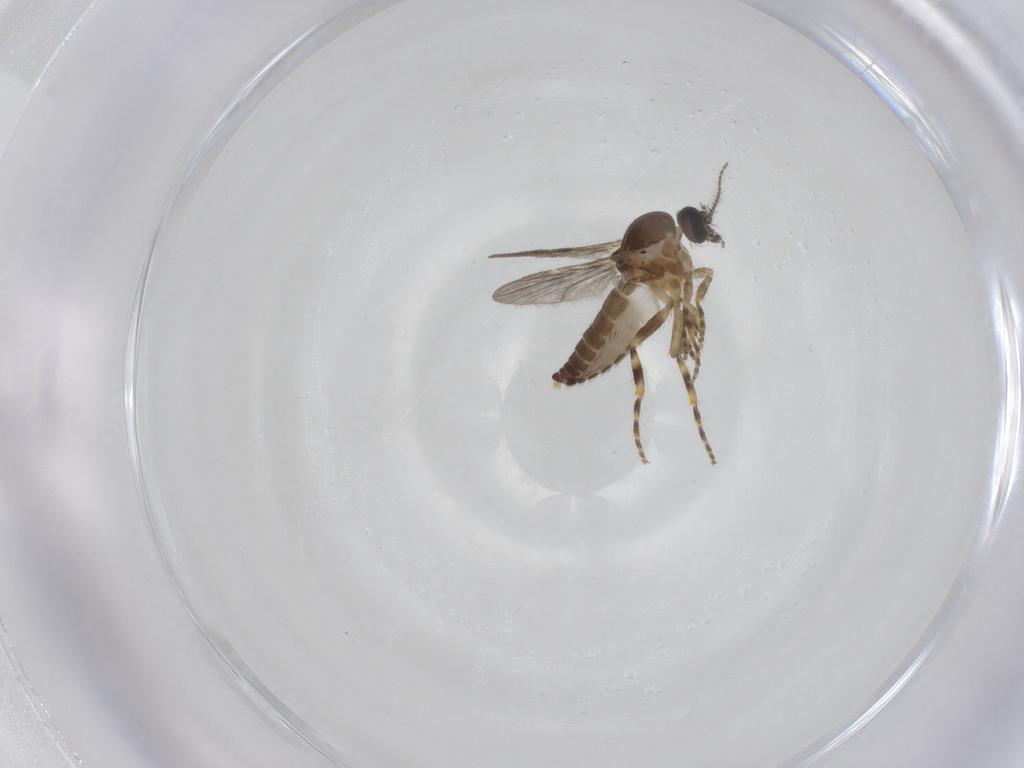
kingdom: Animalia
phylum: Arthropoda
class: Insecta
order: Diptera
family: Ceratopogonidae
